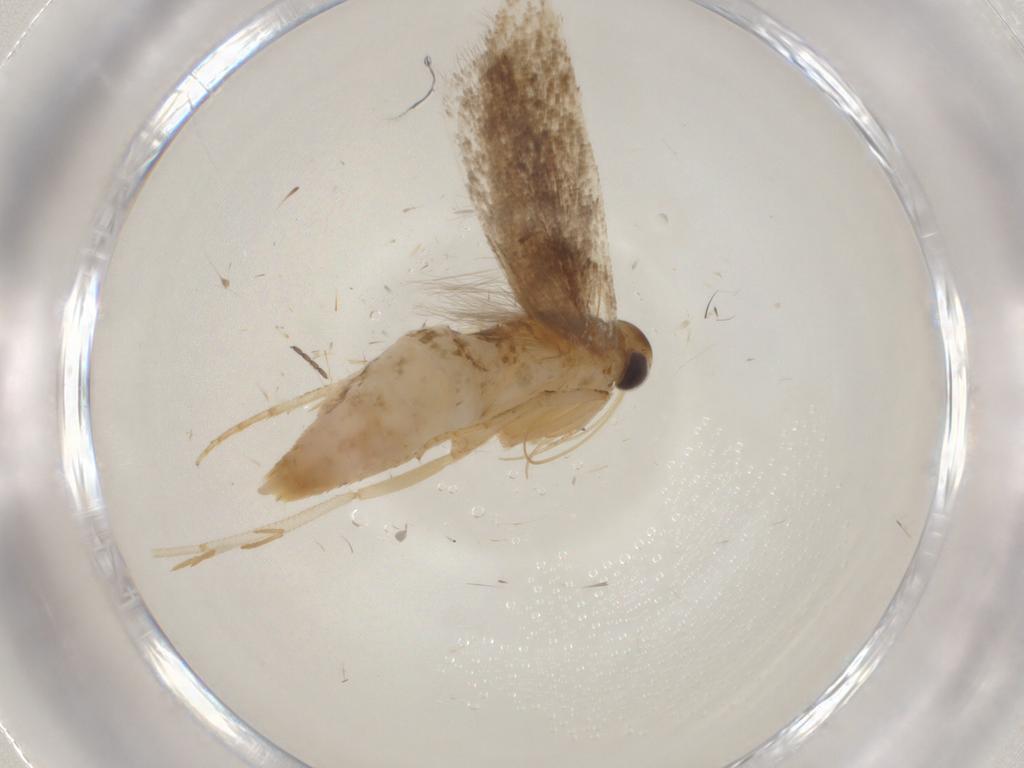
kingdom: Animalia
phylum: Arthropoda
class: Insecta
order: Lepidoptera
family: Gelechiidae
